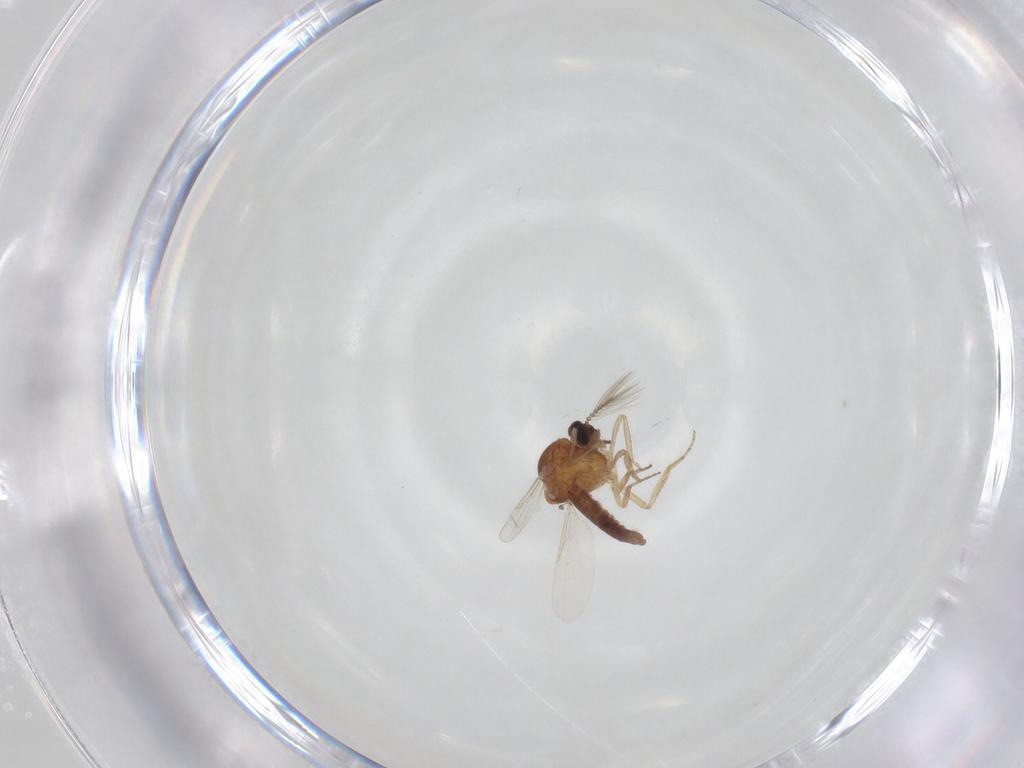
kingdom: Animalia
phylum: Arthropoda
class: Insecta
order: Diptera
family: Ceratopogonidae
